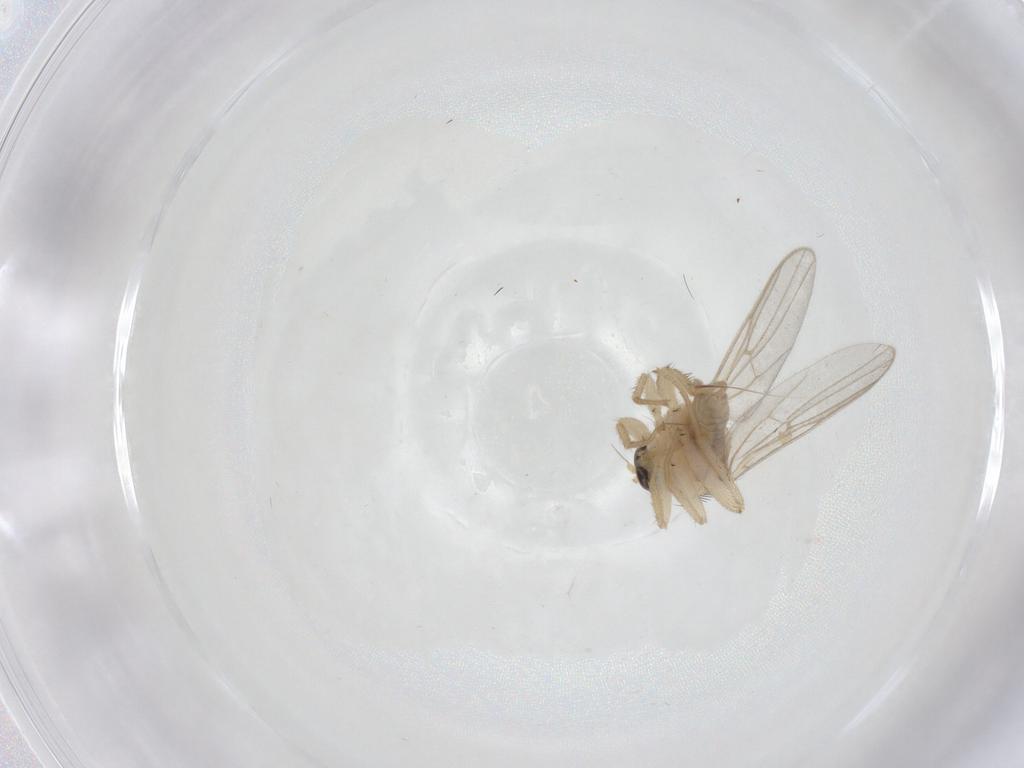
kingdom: Animalia
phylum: Arthropoda
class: Insecta
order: Diptera
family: Hybotidae
